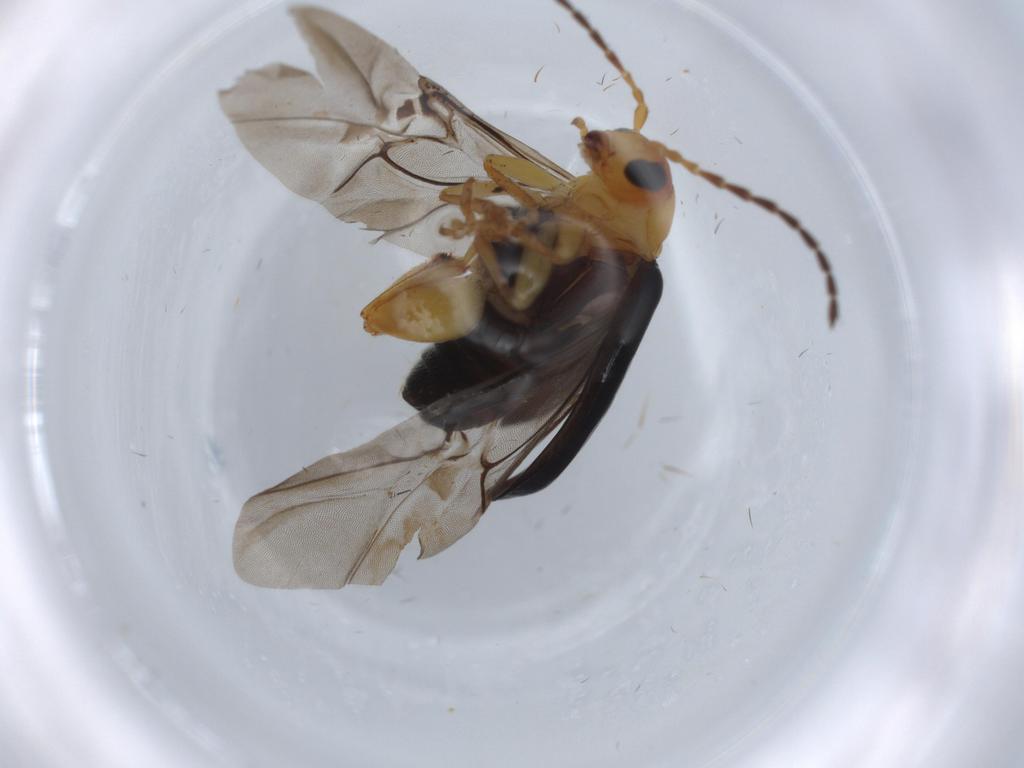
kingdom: Animalia
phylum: Arthropoda
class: Insecta
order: Coleoptera
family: Chrysomelidae
